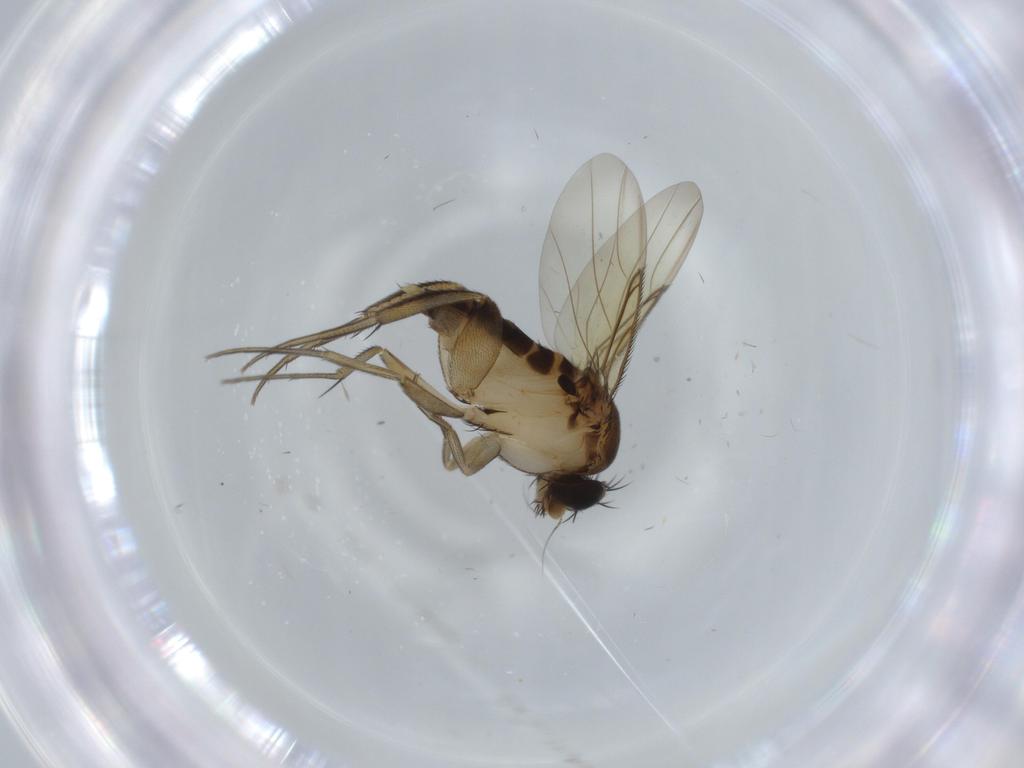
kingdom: Animalia
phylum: Arthropoda
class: Insecta
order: Diptera
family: Phoridae
